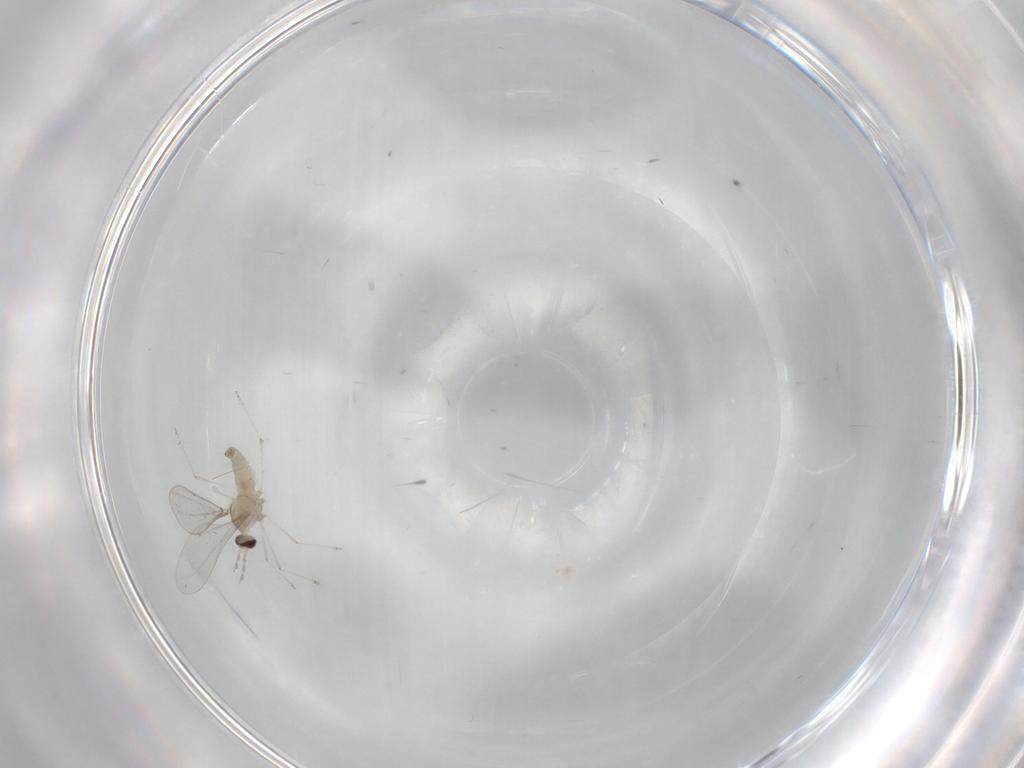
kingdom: Animalia
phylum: Arthropoda
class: Insecta
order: Diptera
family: Cecidomyiidae
